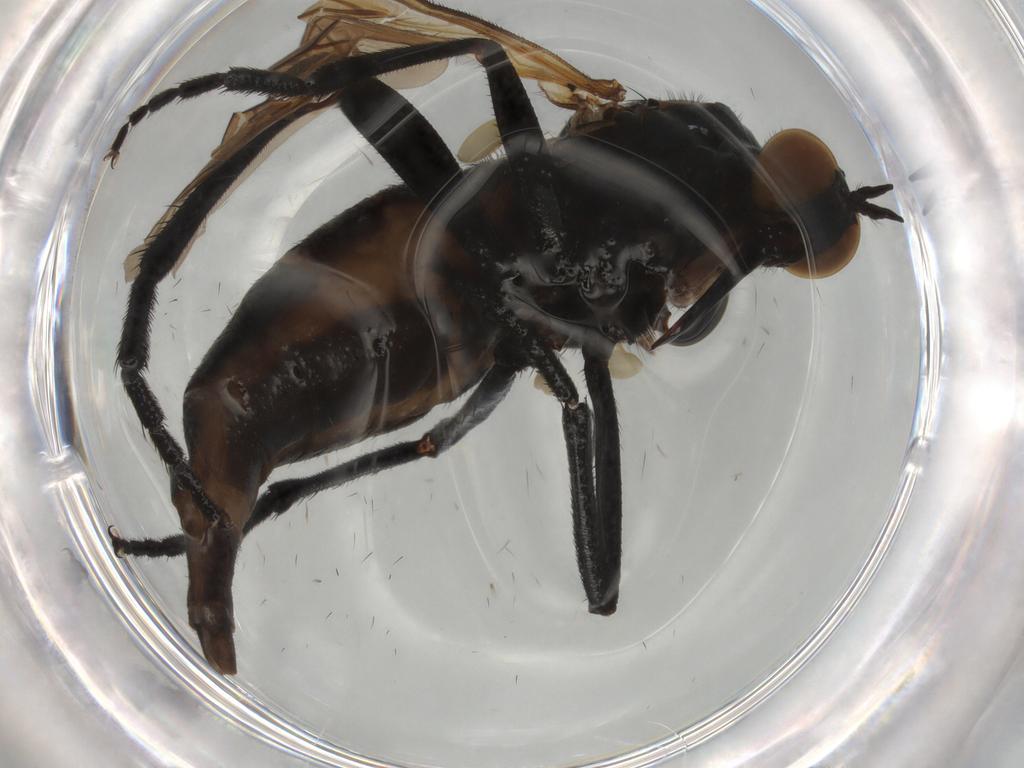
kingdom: Animalia
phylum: Arthropoda
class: Insecta
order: Diptera
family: Empididae
